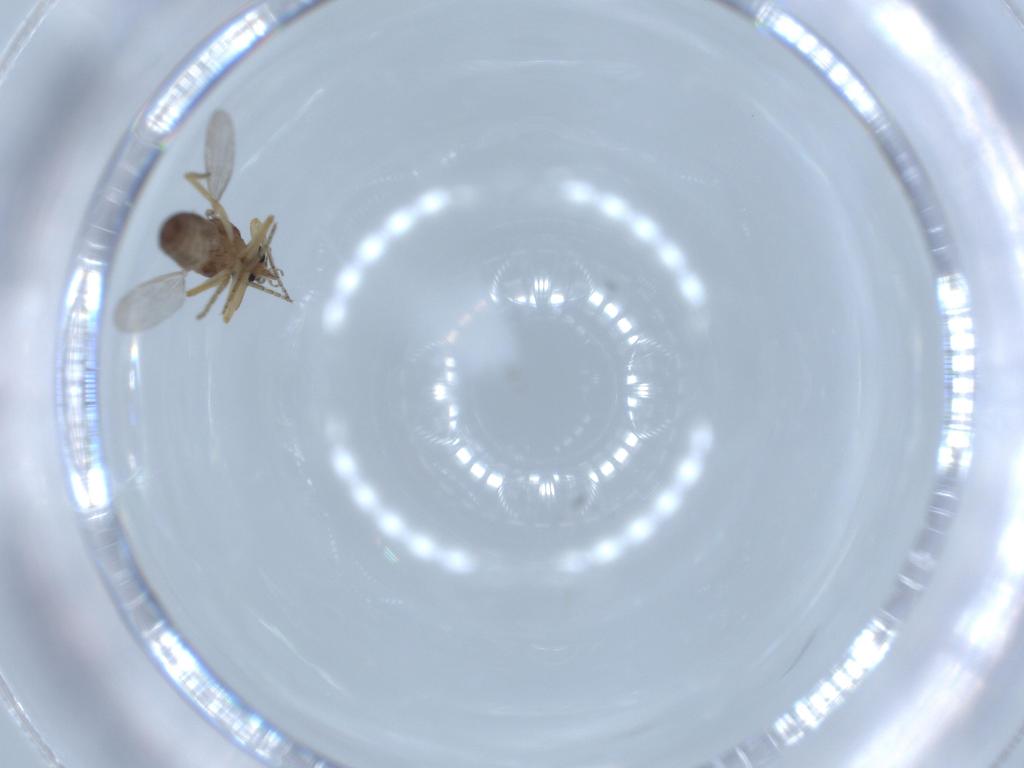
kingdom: Animalia
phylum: Arthropoda
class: Insecta
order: Diptera
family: Ceratopogonidae
